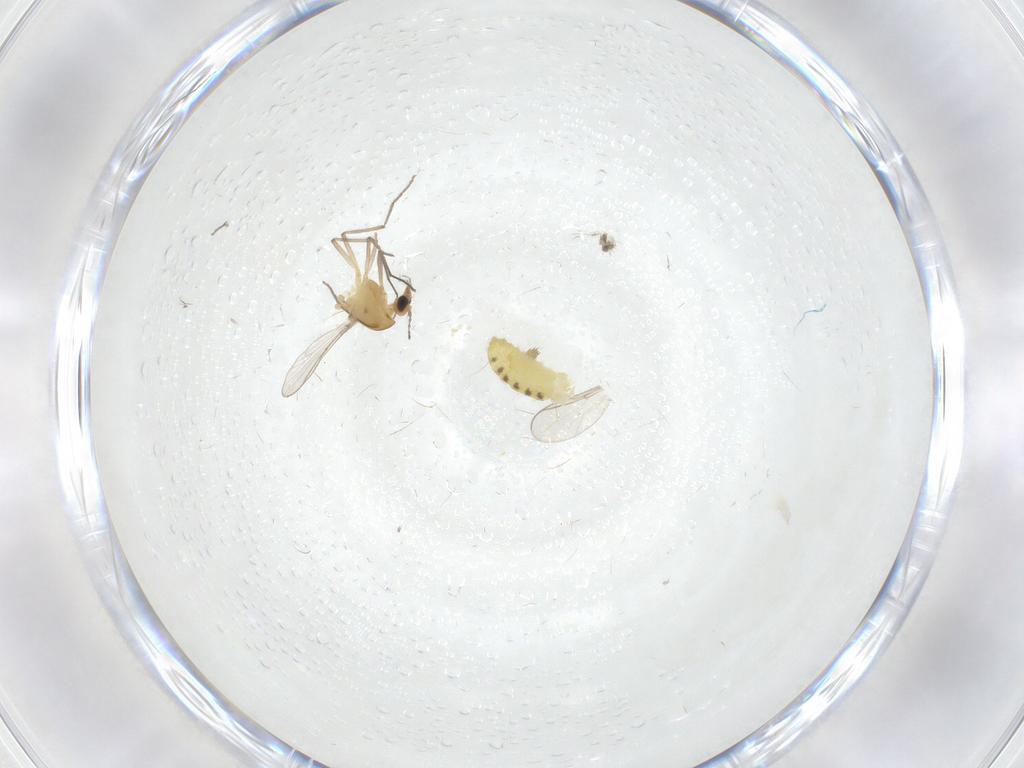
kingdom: Animalia
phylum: Arthropoda
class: Insecta
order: Diptera
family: Chironomidae
